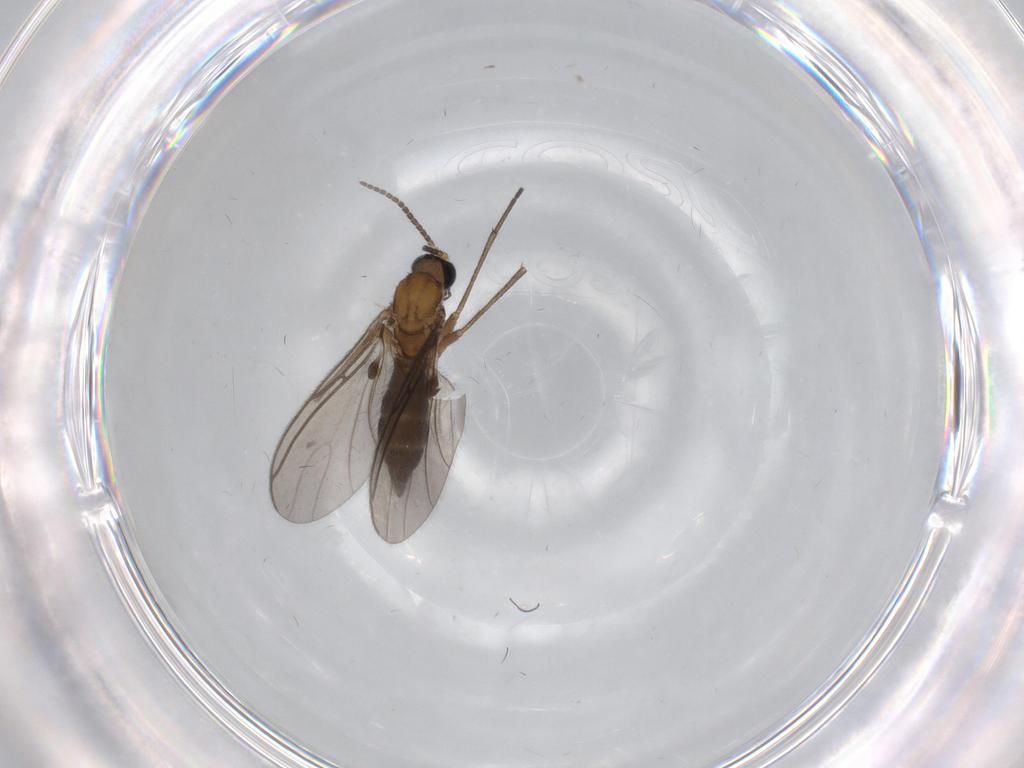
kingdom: Animalia
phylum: Arthropoda
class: Insecta
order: Diptera
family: Sciaridae
